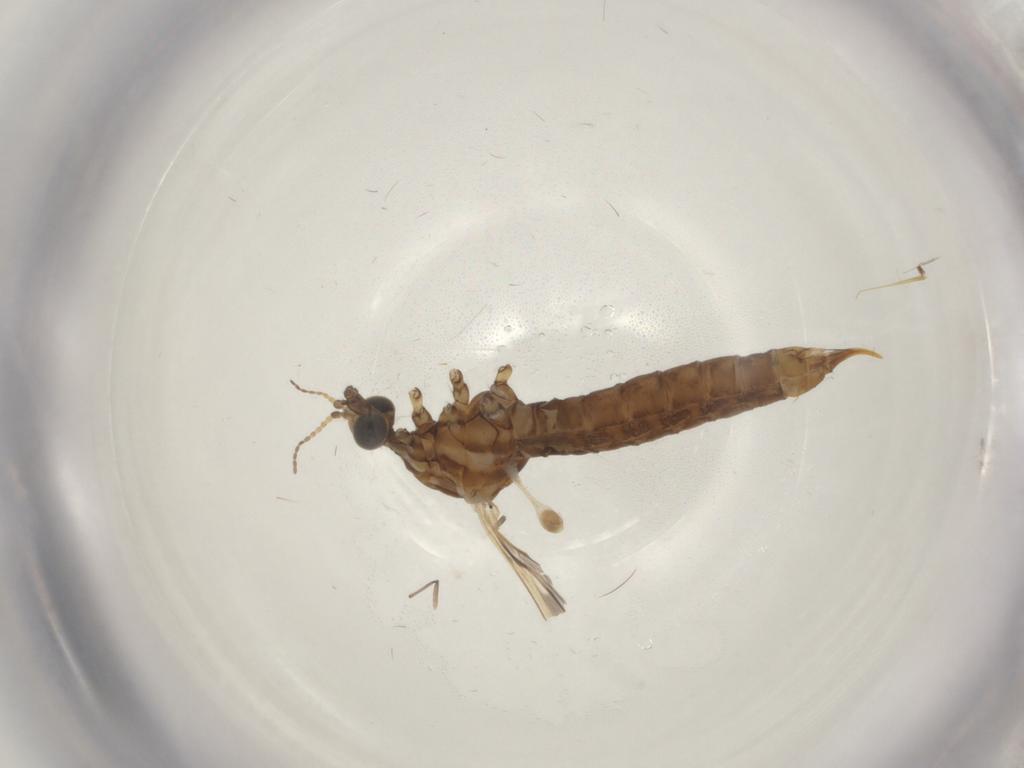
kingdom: Animalia
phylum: Arthropoda
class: Insecta
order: Diptera
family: Limoniidae
